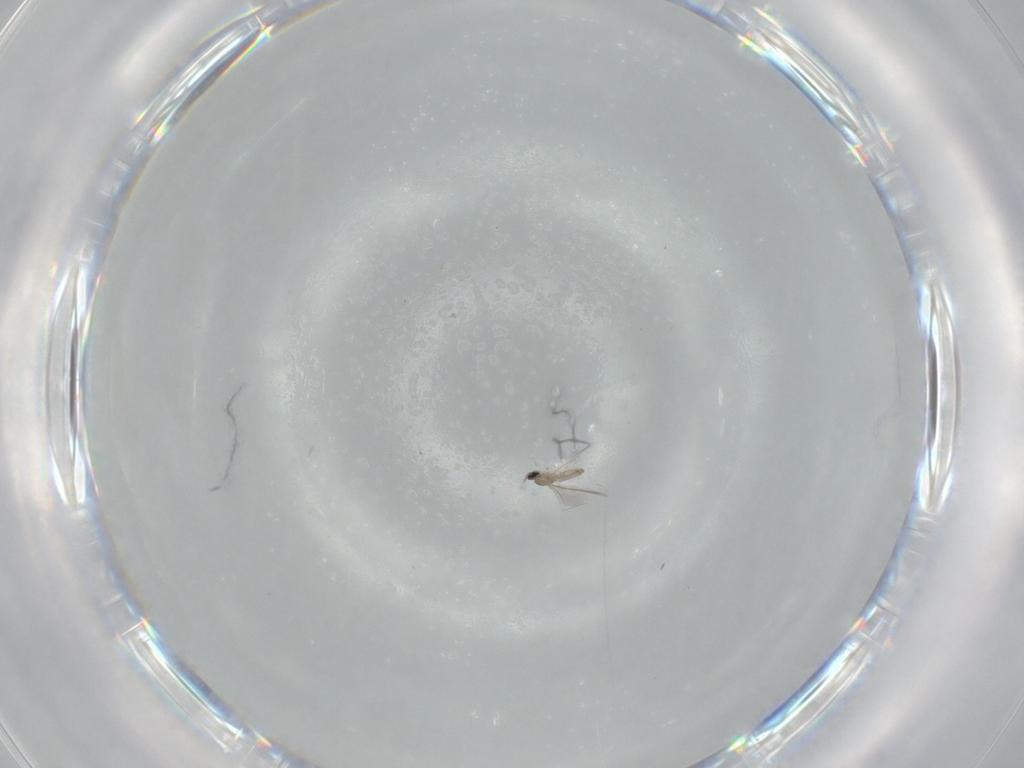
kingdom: Animalia
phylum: Arthropoda
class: Insecta
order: Diptera
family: Cecidomyiidae
